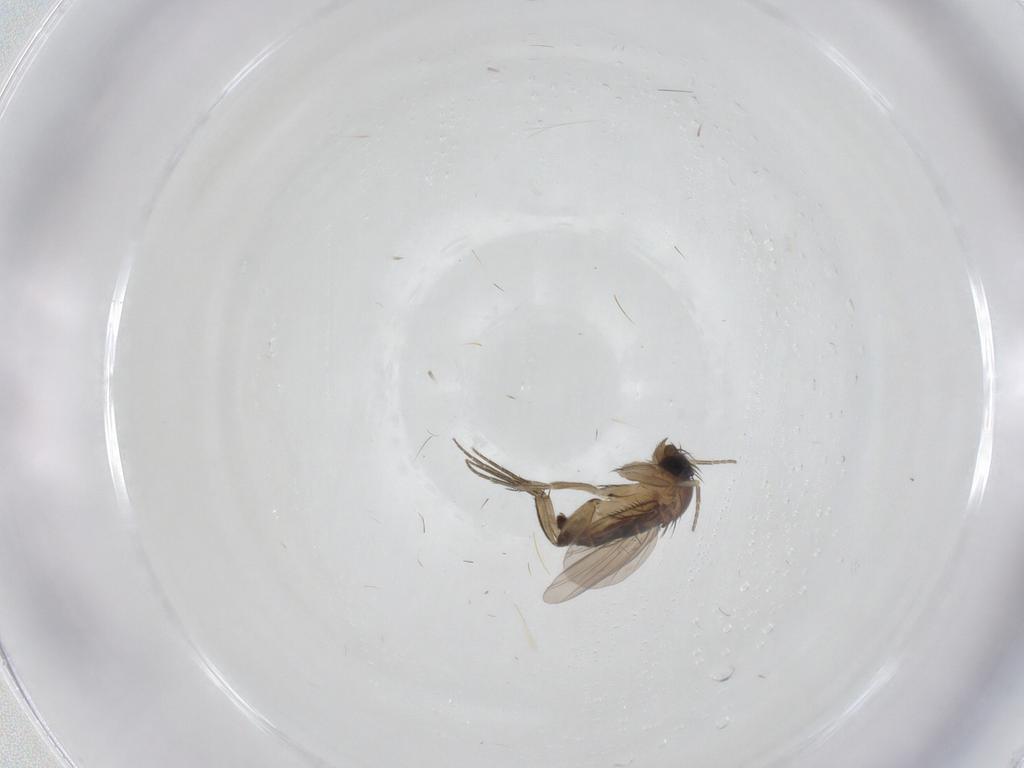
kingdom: Animalia
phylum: Arthropoda
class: Insecta
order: Diptera
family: Phoridae
